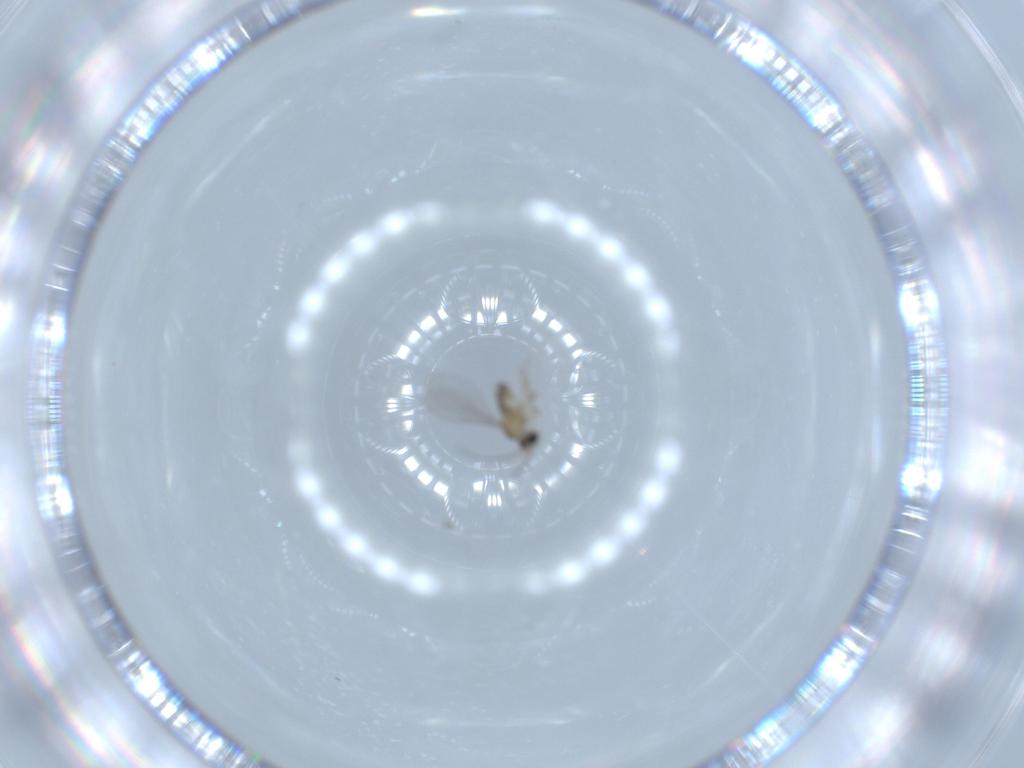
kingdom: Animalia
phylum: Arthropoda
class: Insecta
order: Diptera
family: Cecidomyiidae
